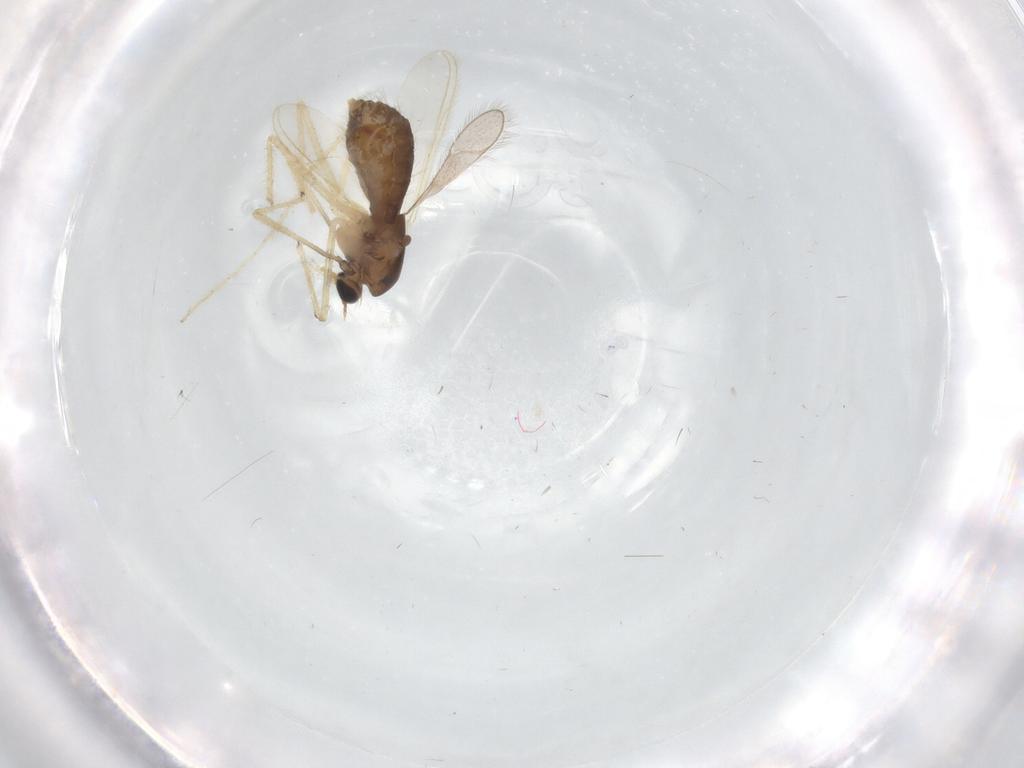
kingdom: Animalia
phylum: Arthropoda
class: Insecta
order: Diptera
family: Chironomidae
